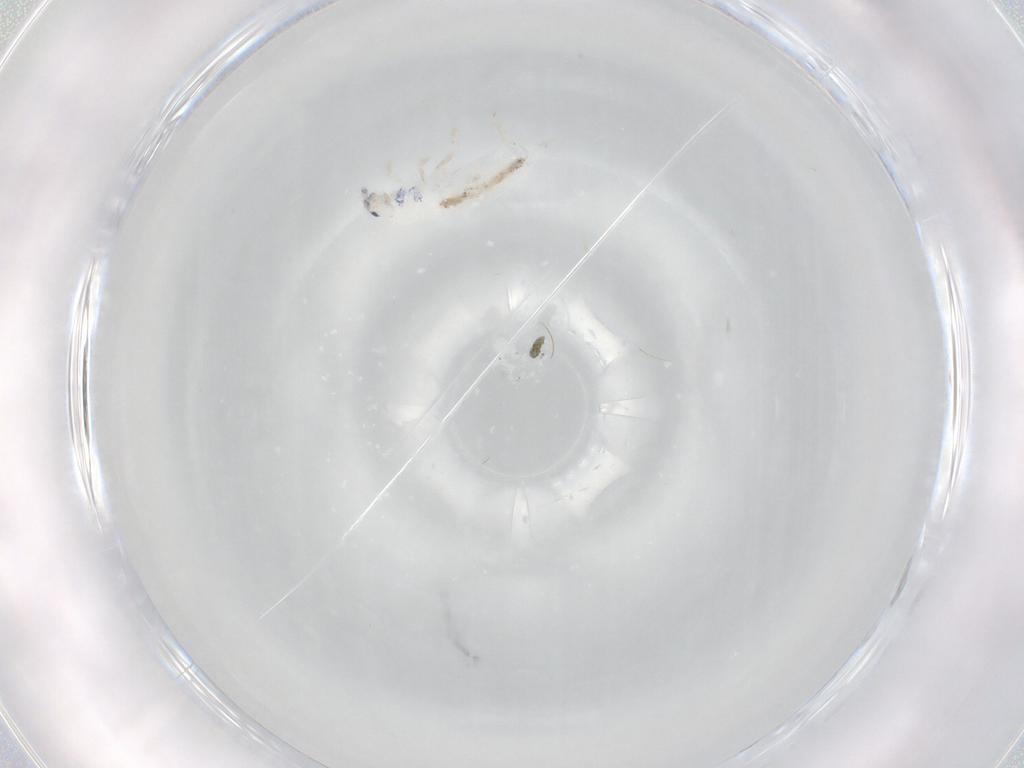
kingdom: Animalia
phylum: Arthropoda
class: Collembola
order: Entomobryomorpha
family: Entomobryidae
